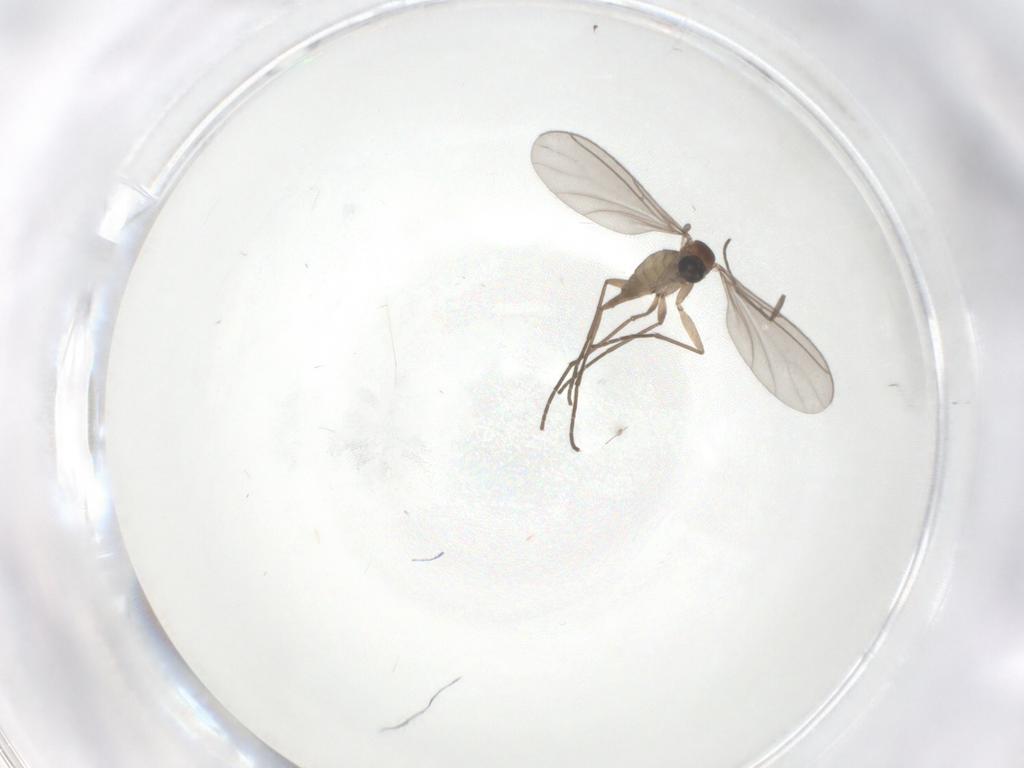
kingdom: Animalia
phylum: Arthropoda
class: Insecta
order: Diptera
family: Sciaridae
